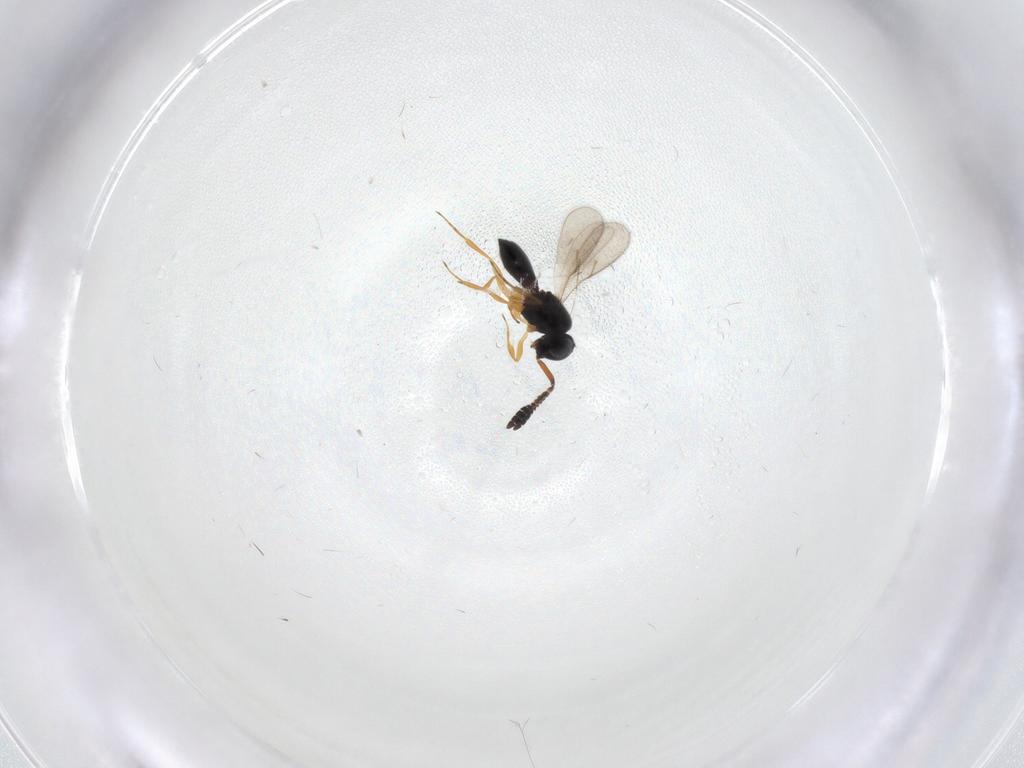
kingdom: Animalia
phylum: Arthropoda
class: Insecta
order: Hymenoptera
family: Scelionidae
